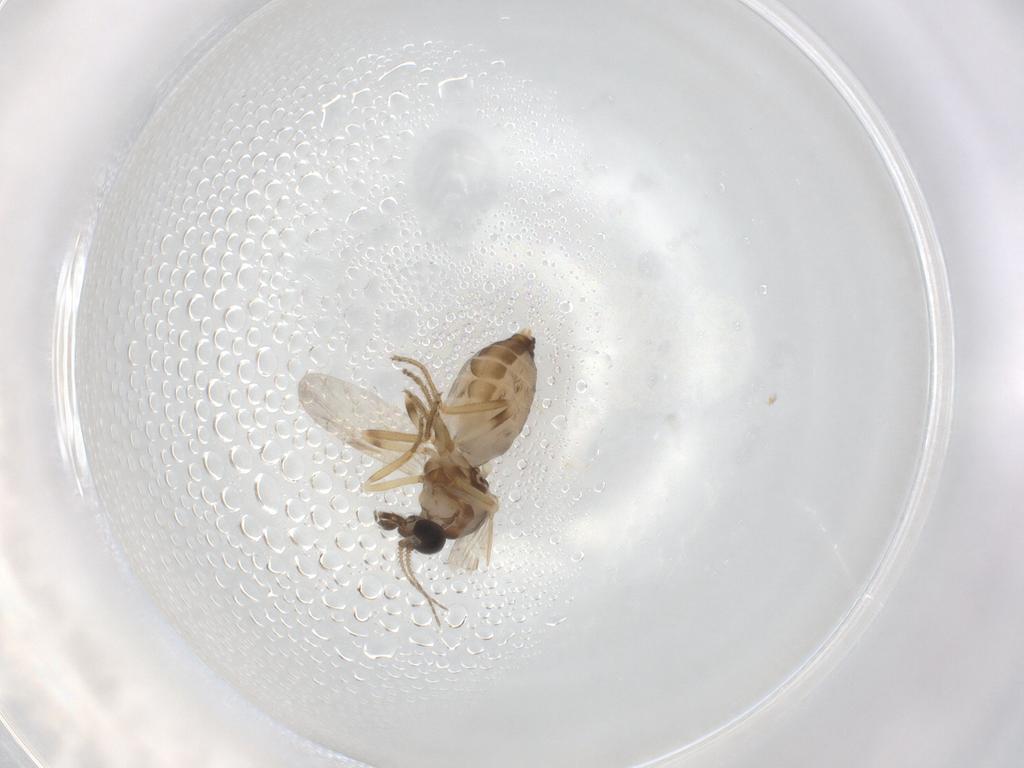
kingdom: Animalia
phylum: Arthropoda
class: Insecta
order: Diptera
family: Ceratopogonidae
